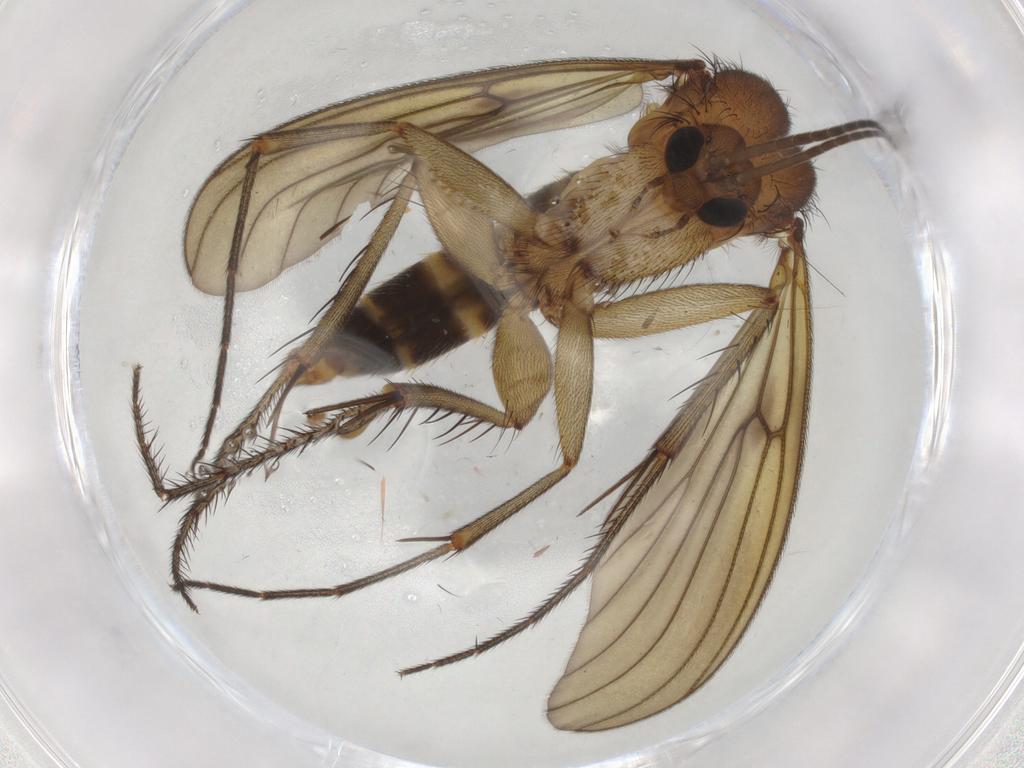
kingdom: Animalia
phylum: Arthropoda
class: Insecta
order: Diptera
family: Mycetophilidae
